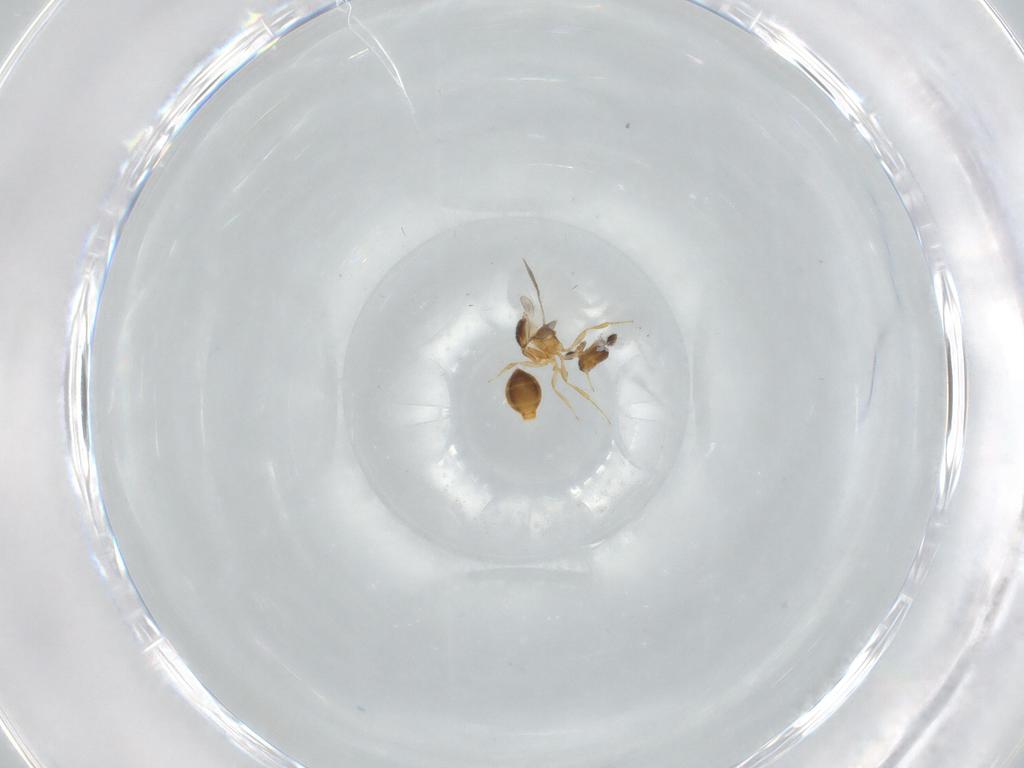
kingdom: Animalia
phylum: Arthropoda
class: Insecta
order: Hymenoptera
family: Scelionidae
